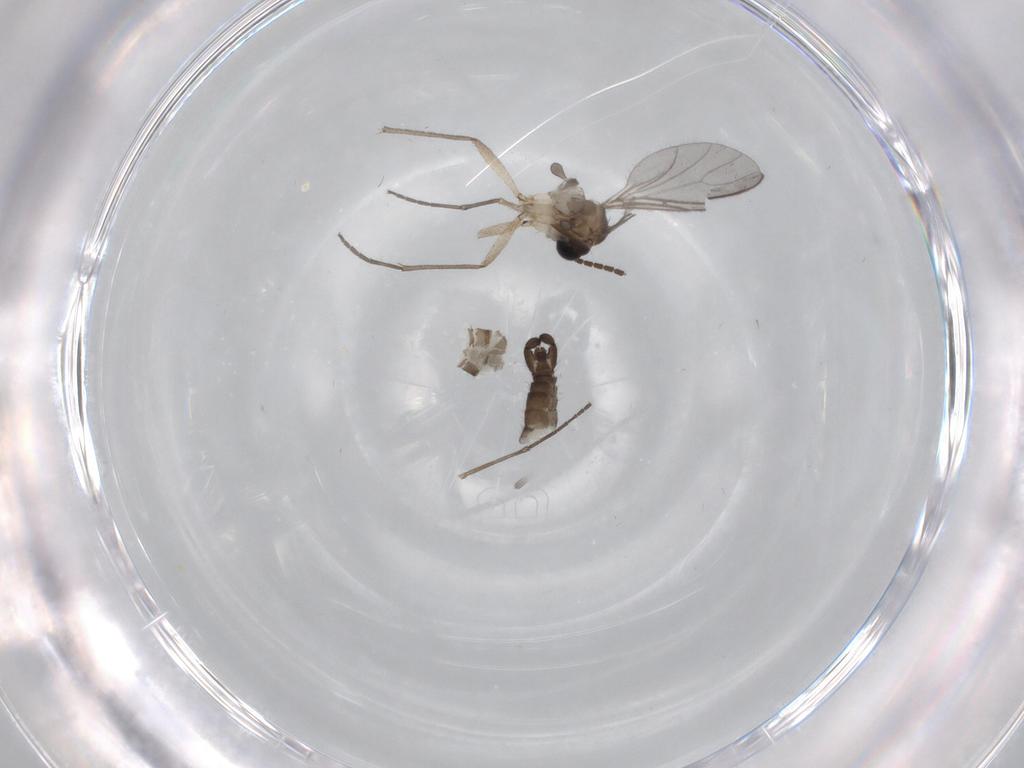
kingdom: Animalia
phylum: Arthropoda
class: Insecta
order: Diptera
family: Sciaridae
